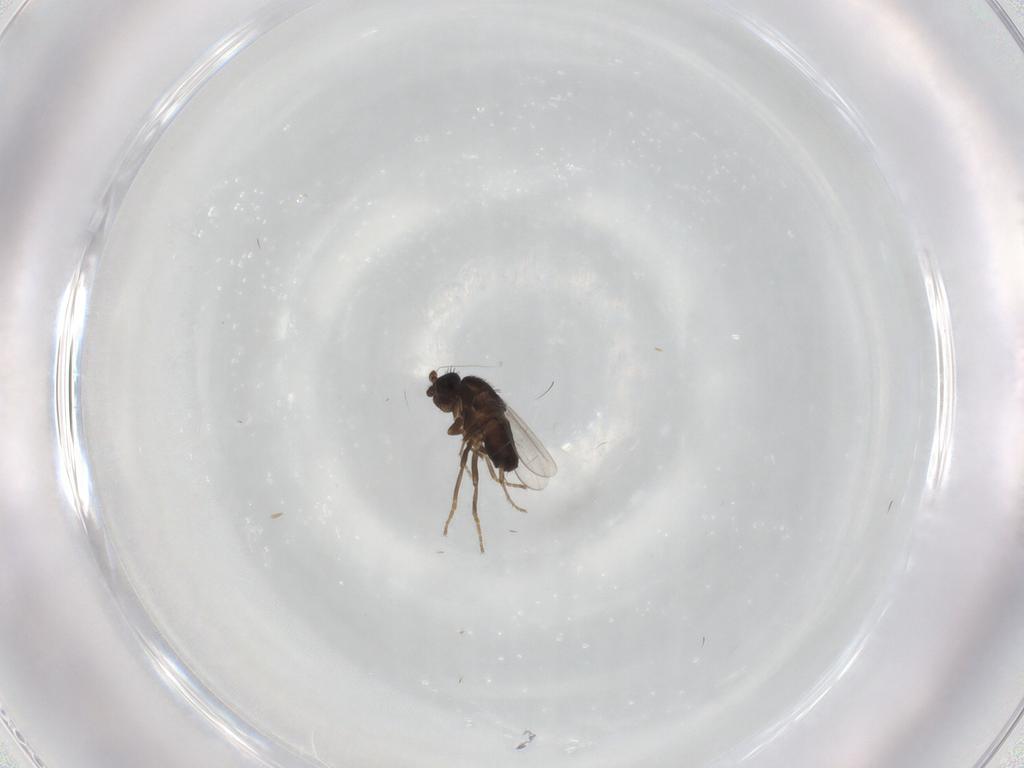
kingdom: Animalia
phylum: Arthropoda
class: Insecta
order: Diptera
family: Sphaeroceridae
